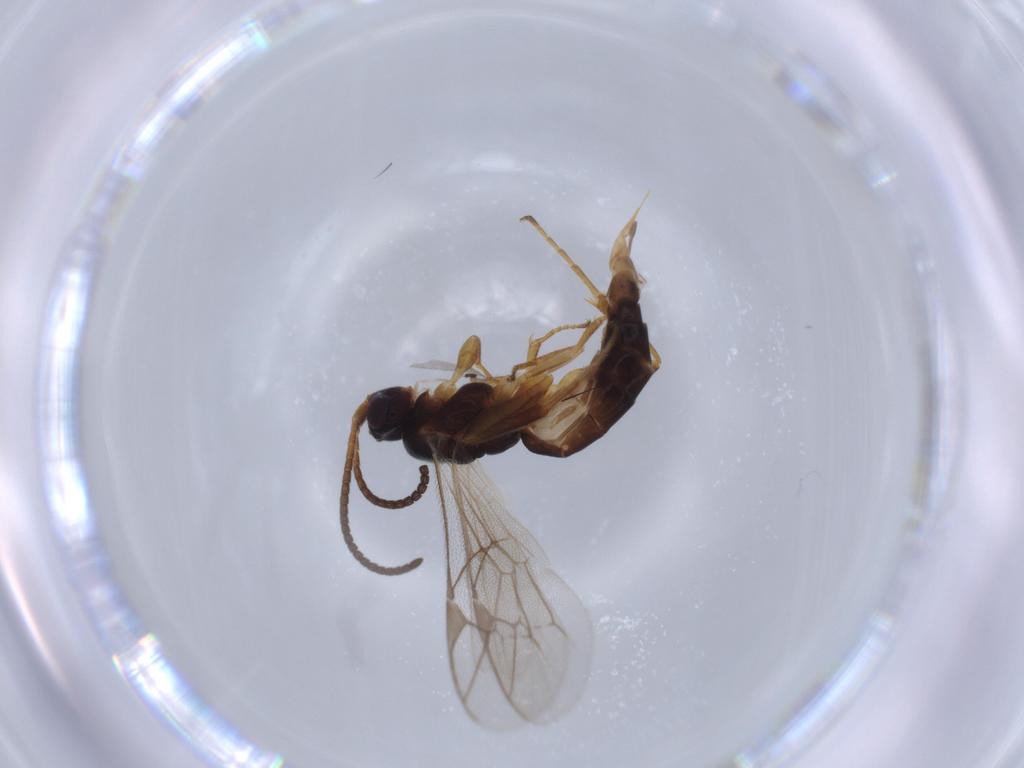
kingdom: Animalia
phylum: Arthropoda
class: Insecta
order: Hymenoptera
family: Ichneumonidae
